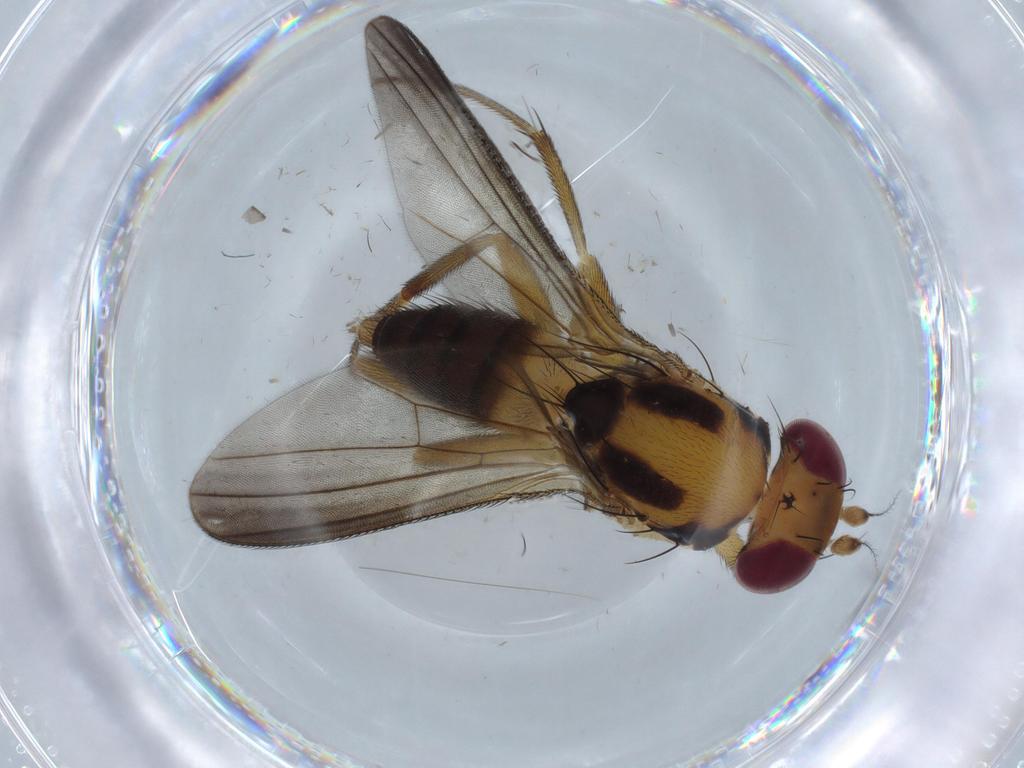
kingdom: Animalia
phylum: Arthropoda
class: Insecta
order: Diptera
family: Clusiidae
